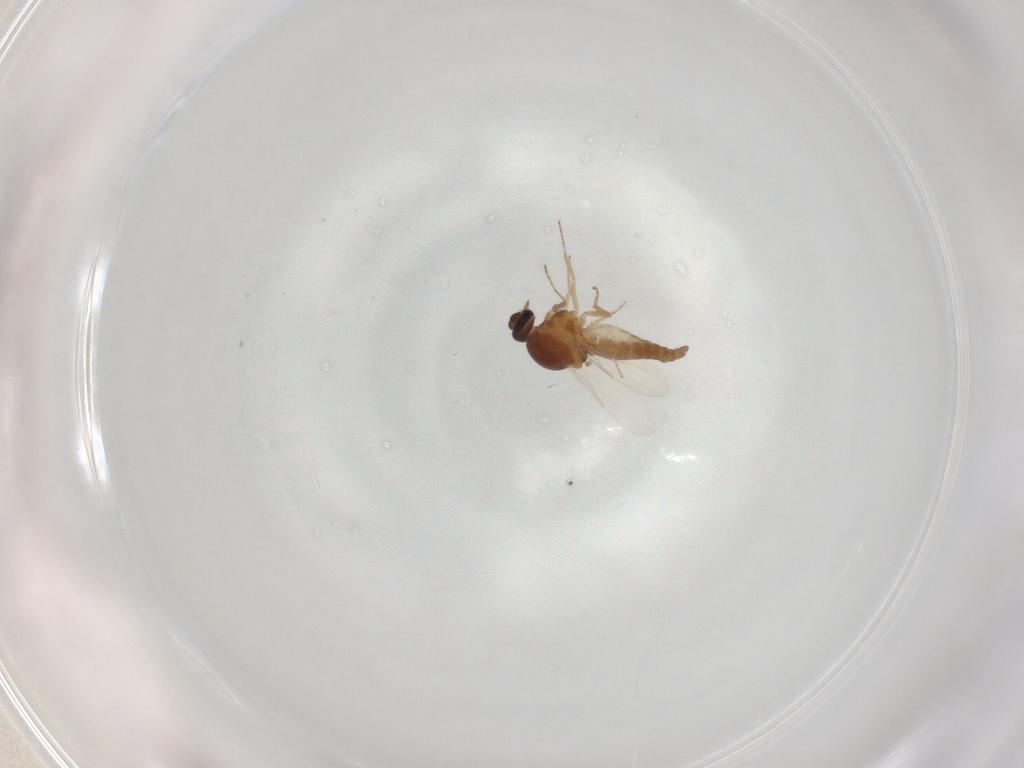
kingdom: Animalia
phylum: Arthropoda
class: Insecta
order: Diptera
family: Ceratopogonidae
